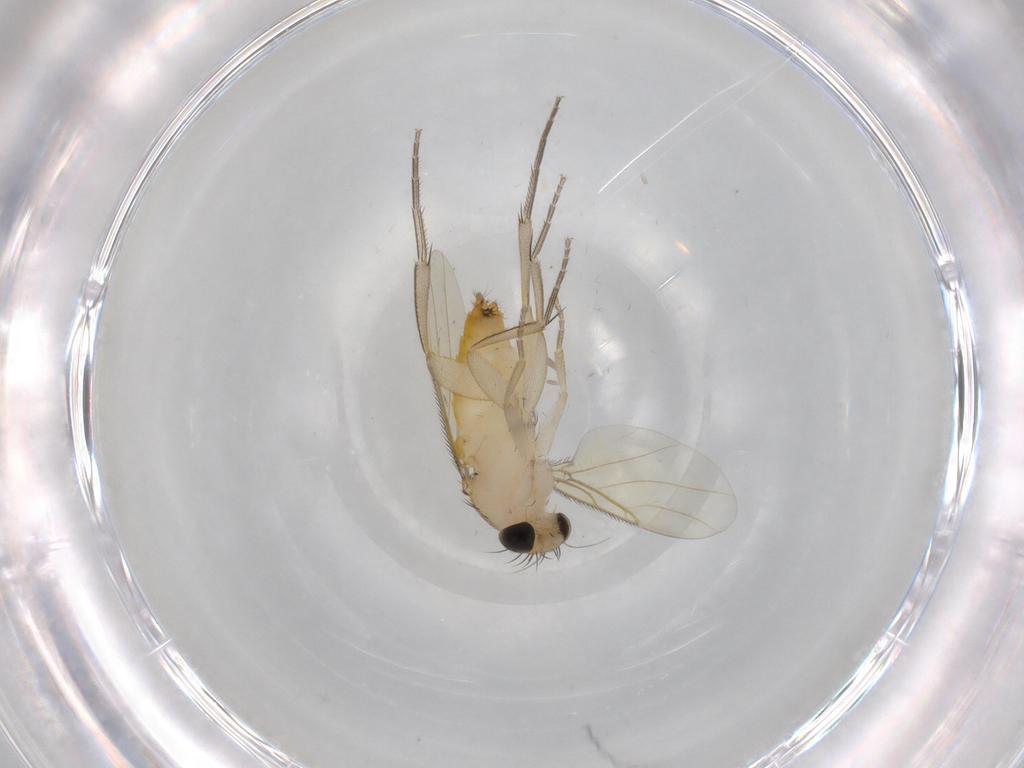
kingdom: Animalia
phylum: Arthropoda
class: Insecta
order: Diptera
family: Phoridae
